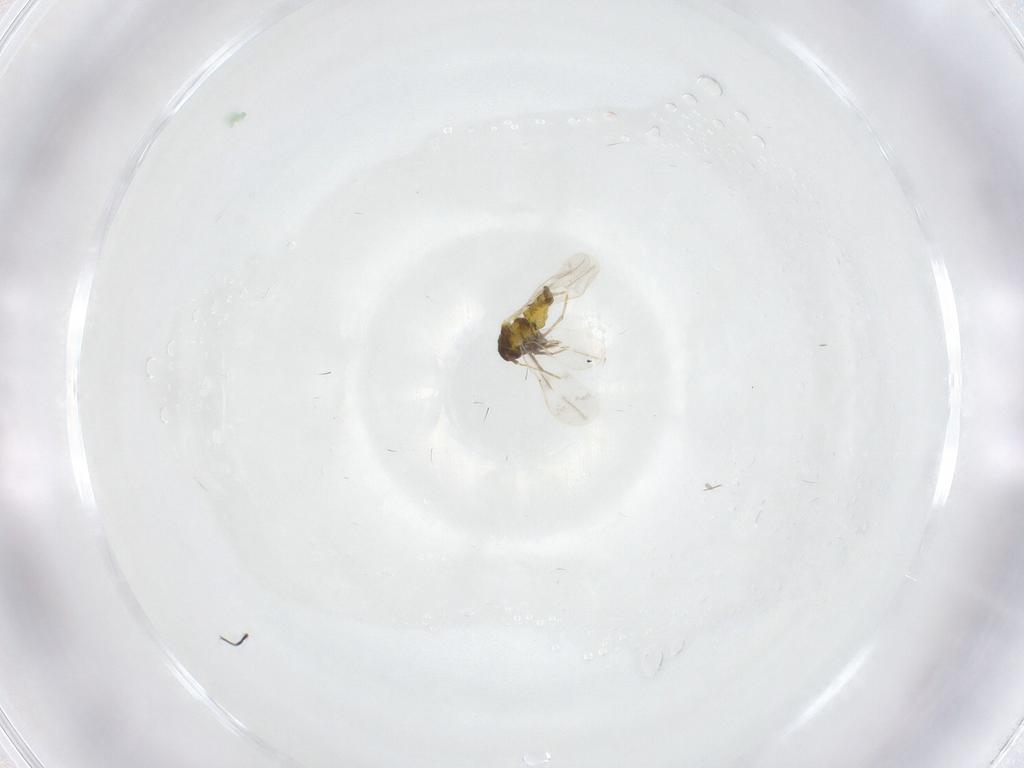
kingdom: Animalia
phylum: Arthropoda
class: Insecta
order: Hemiptera
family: Aleyrodidae
